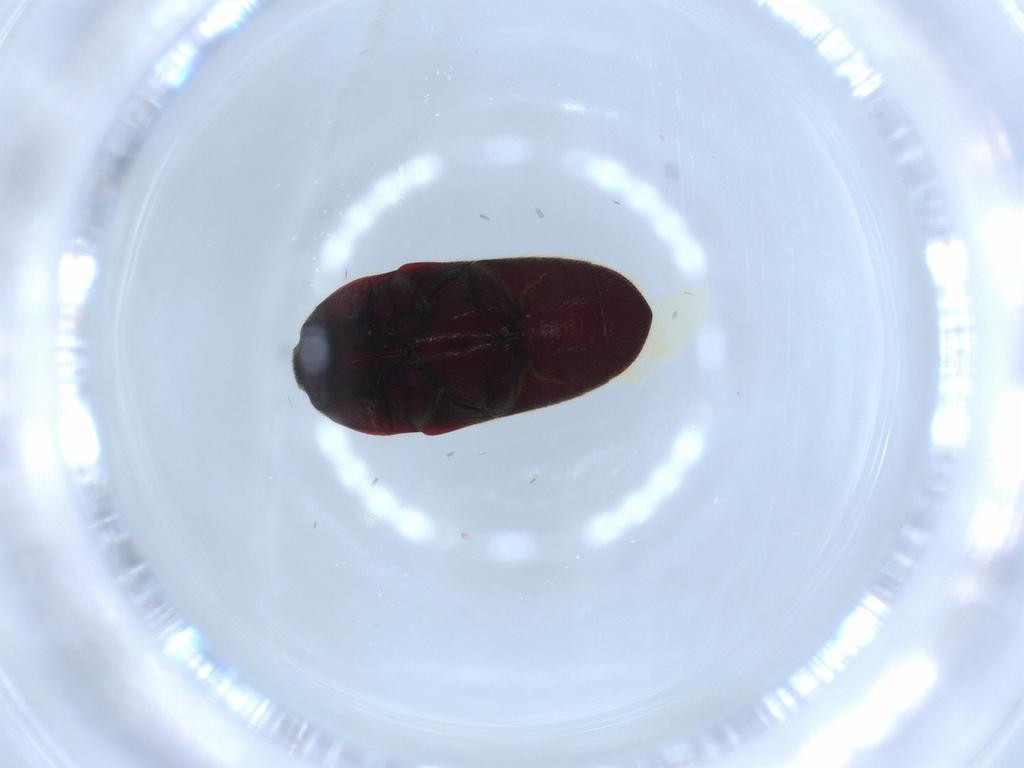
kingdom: Animalia
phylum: Arthropoda
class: Insecta
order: Coleoptera
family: Throscidae
